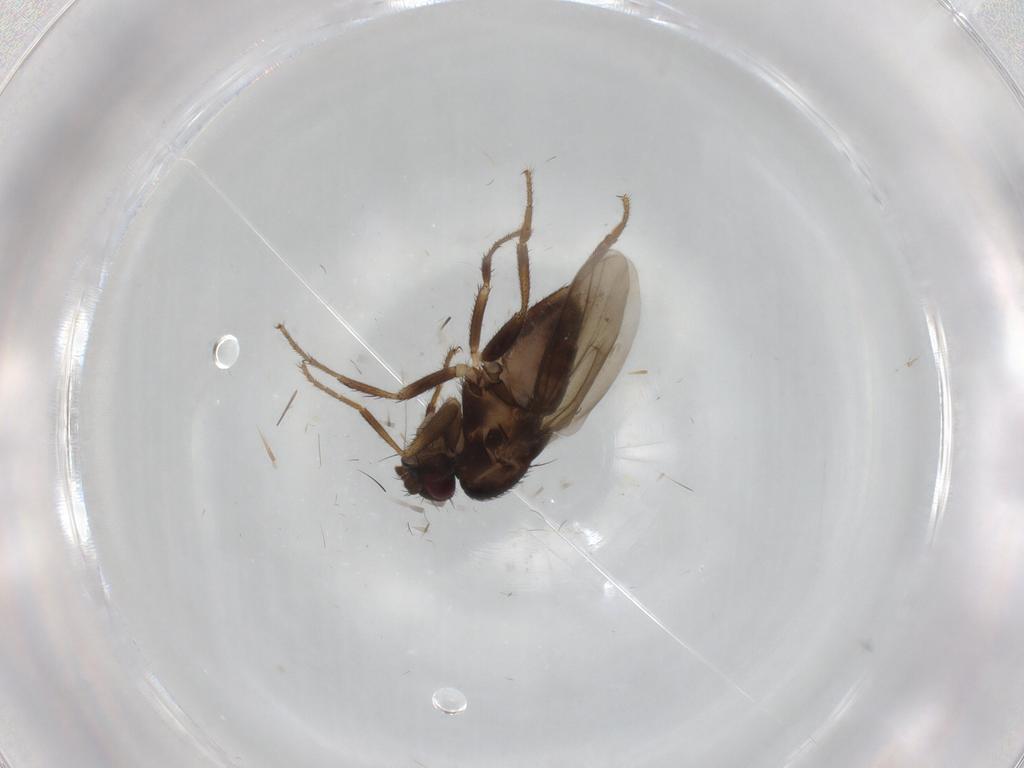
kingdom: Animalia
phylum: Arthropoda
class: Insecta
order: Diptera
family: Sphaeroceridae
